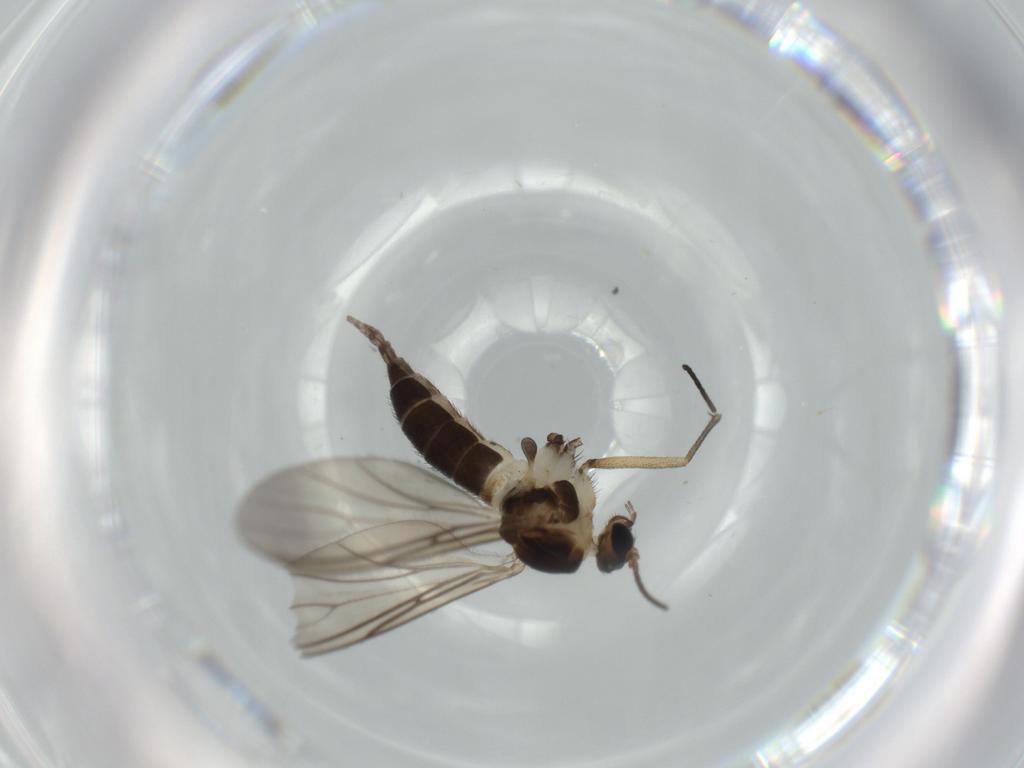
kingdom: Animalia
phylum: Arthropoda
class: Insecta
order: Diptera
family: Sciaridae
